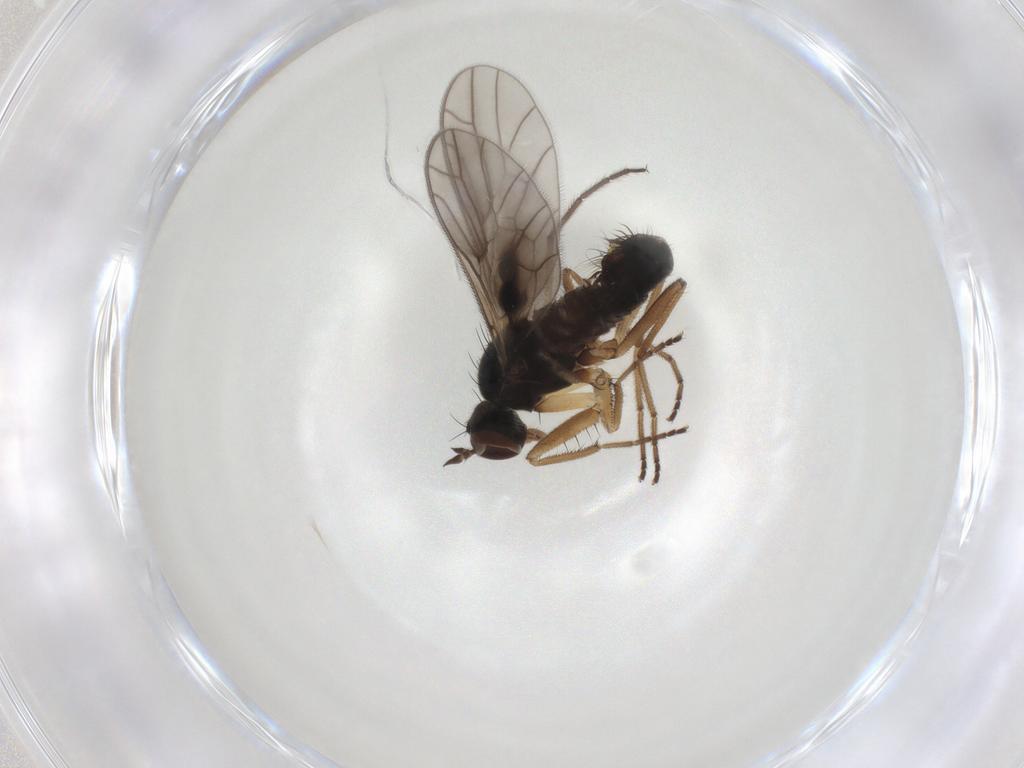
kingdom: Animalia
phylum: Arthropoda
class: Insecta
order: Diptera
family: Empididae
